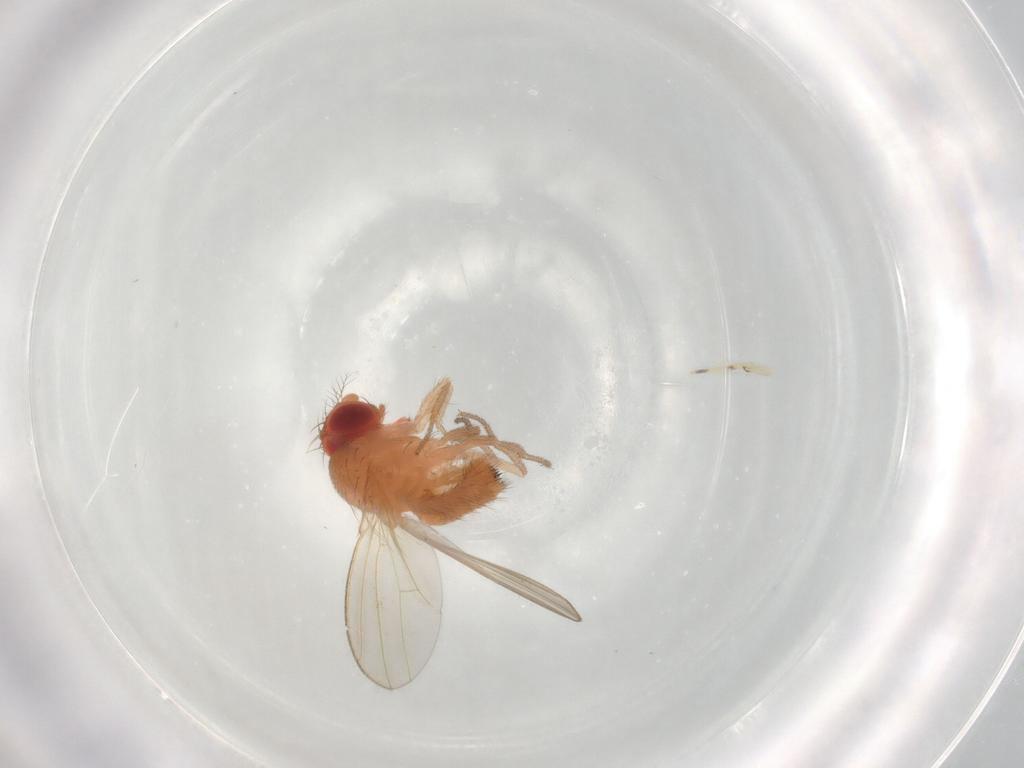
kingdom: Animalia
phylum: Arthropoda
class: Insecta
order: Diptera
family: Drosophilidae
